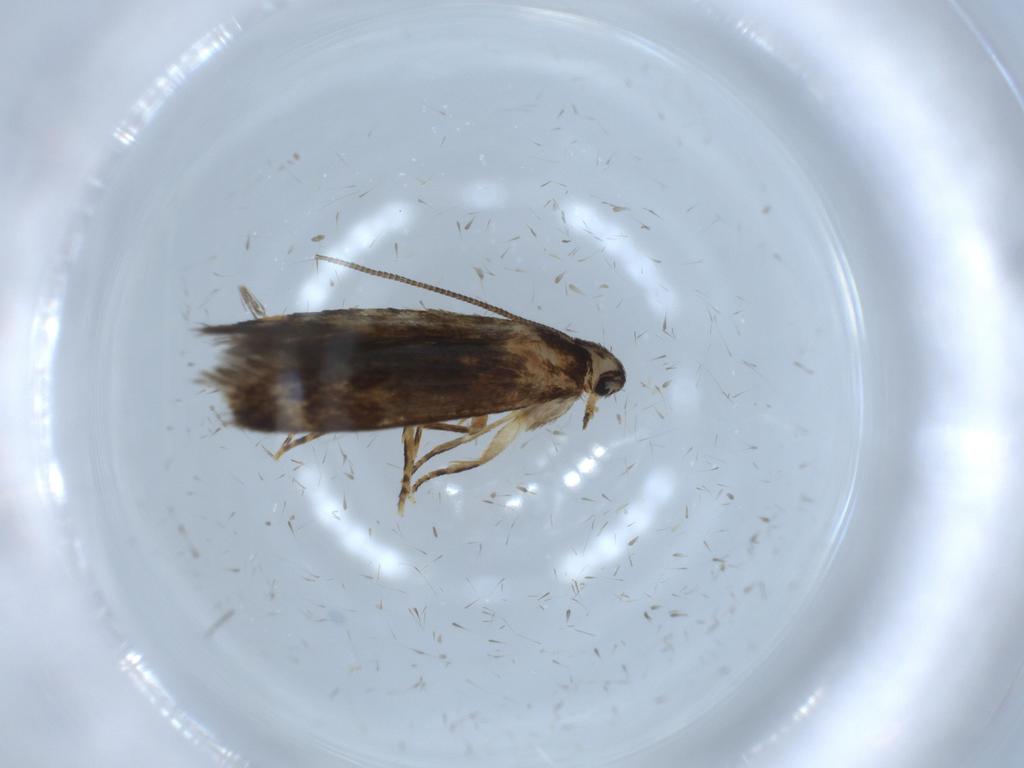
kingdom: Animalia
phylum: Arthropoda
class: Insecta
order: Lepidoptera
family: Tineidae
